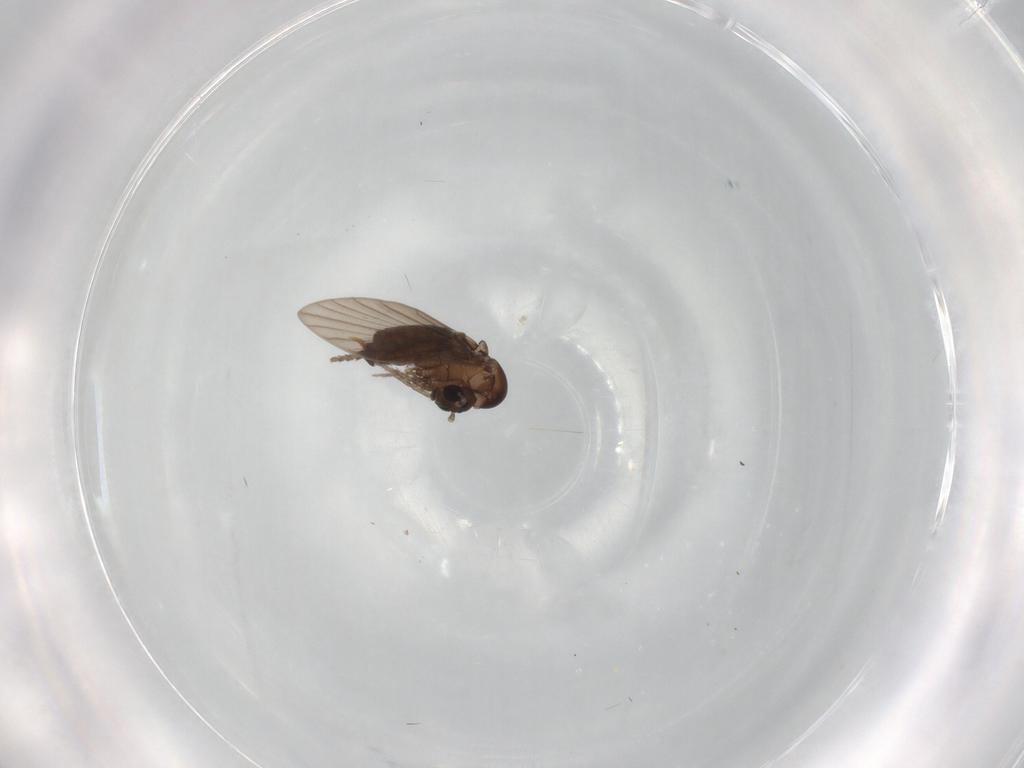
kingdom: Animalia
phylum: Arthropoda
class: Insecta
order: Diptera
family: Psychodidae
